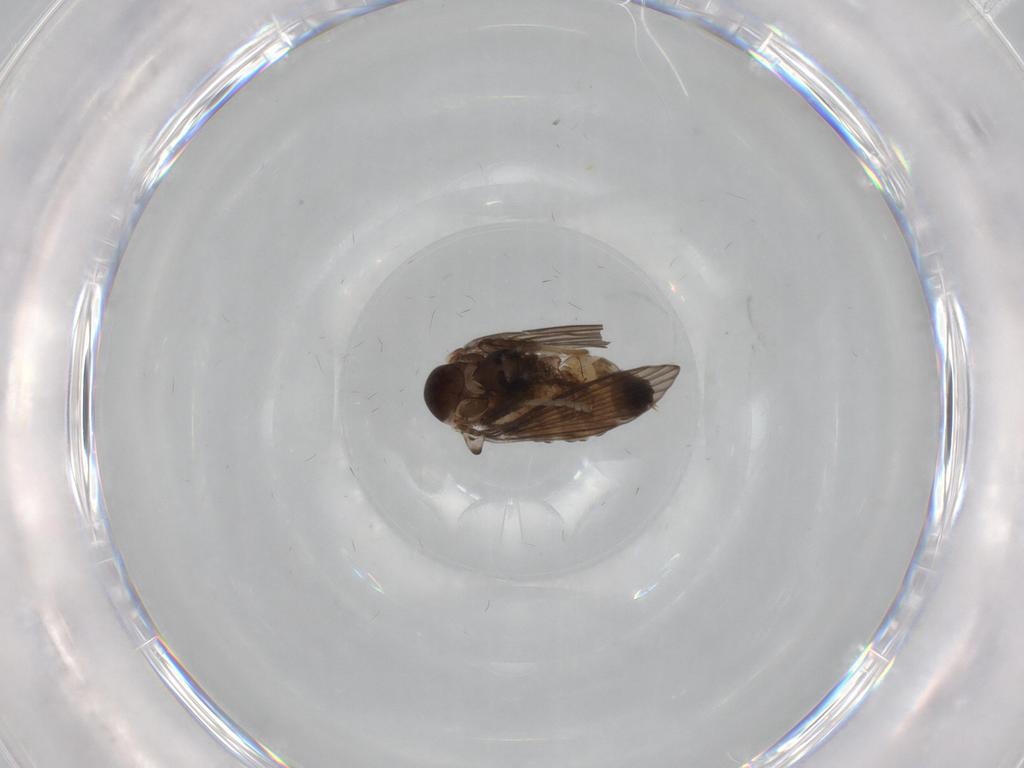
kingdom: Animalia
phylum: Arthropoda
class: Insecta
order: Diptera
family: Psychodidae
